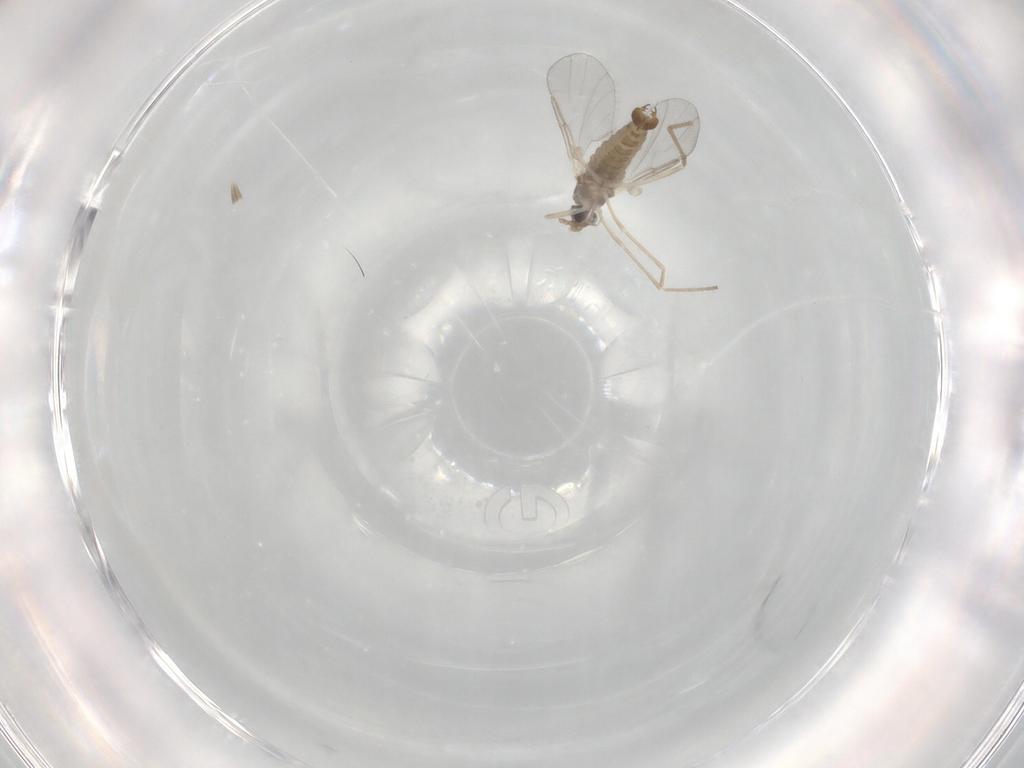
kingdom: Animalia
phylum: Arthropoda
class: Insecta
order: Diptera
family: Cecidomyiidae
